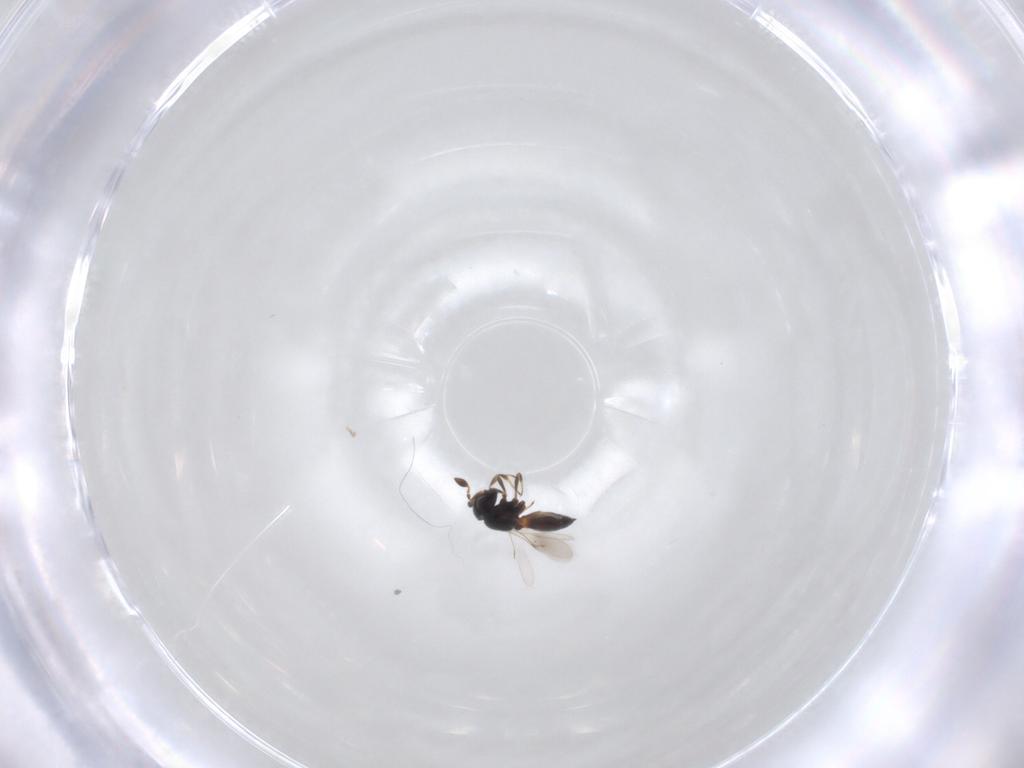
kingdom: Animalia
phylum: Arthropoda
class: Insecta
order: Hymenoptera
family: Scelionidae
